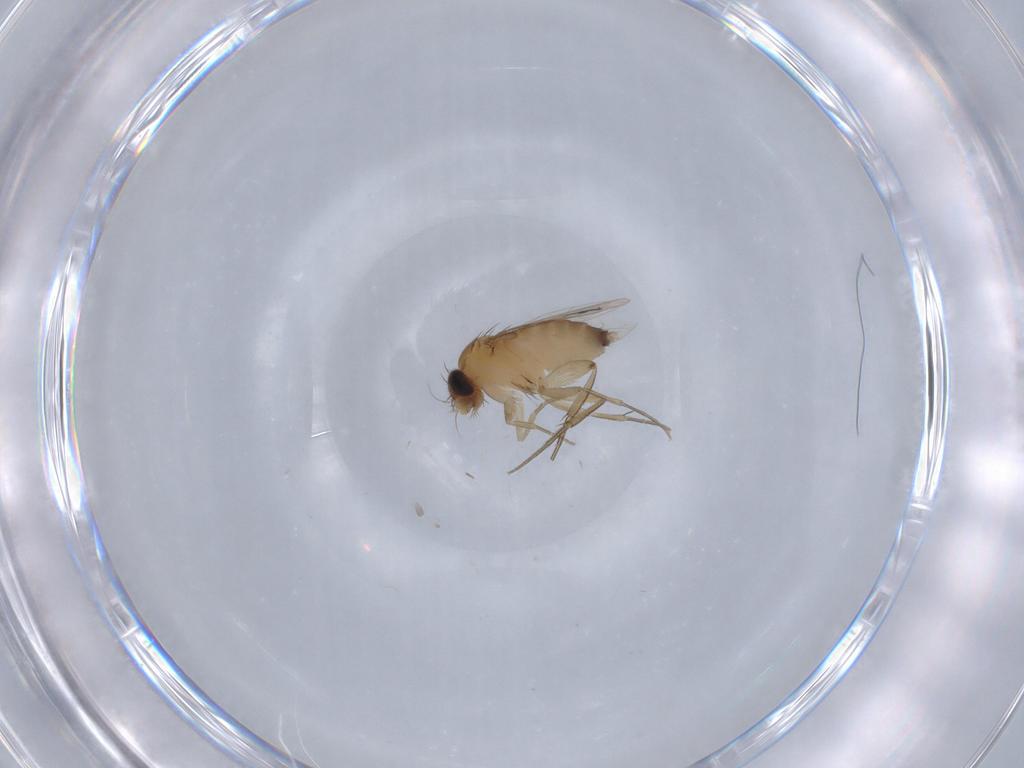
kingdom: Animalia
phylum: Arthropoda
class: Insecta
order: Diptera
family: Phoridae
